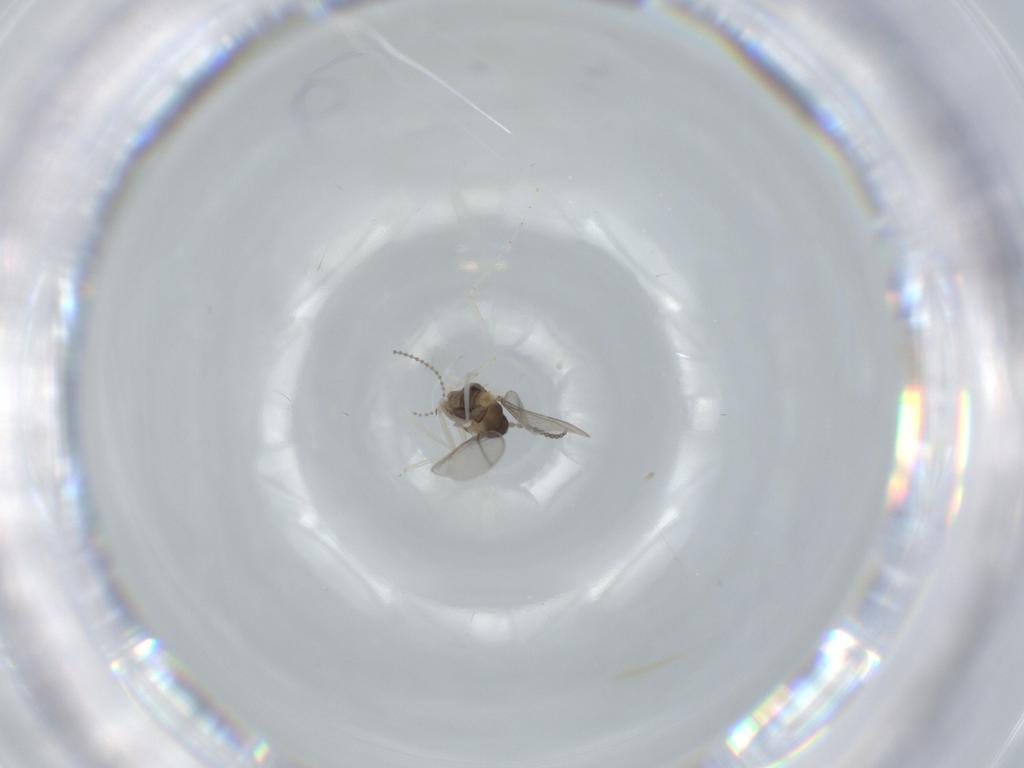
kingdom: Animalia
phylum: Arthropoda
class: Insecta
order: Diptera
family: Cecidomyiidae
